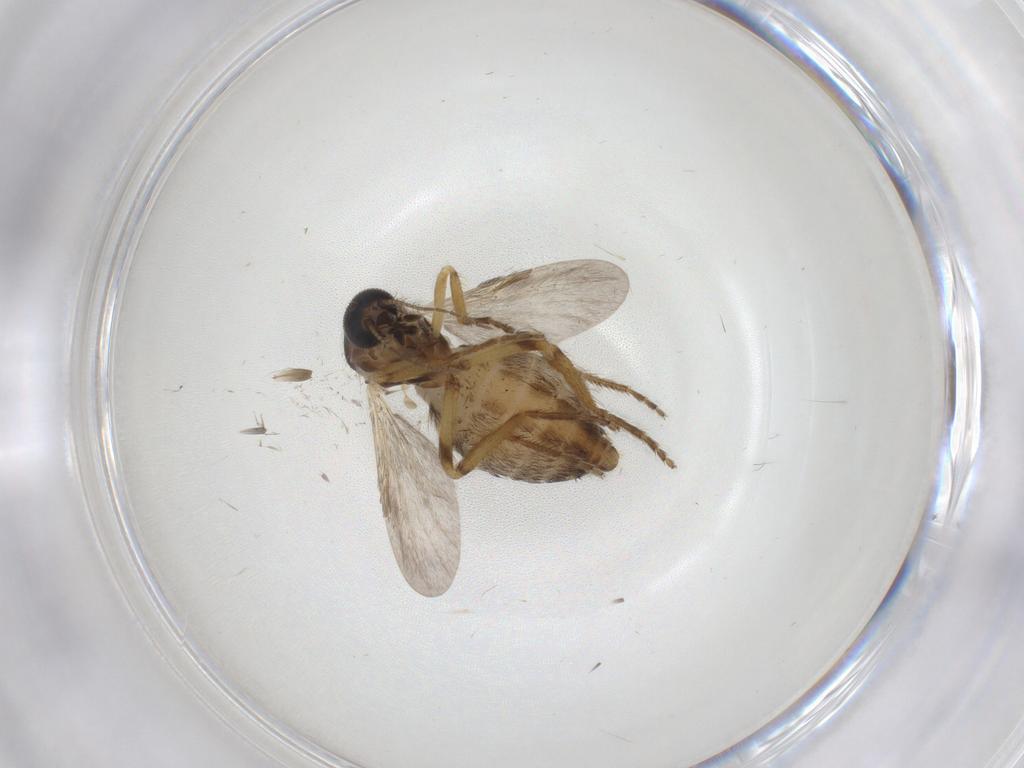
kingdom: Animalia
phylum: Arthropoda
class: Insecta
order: Diptera
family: Ceratopogonidae
